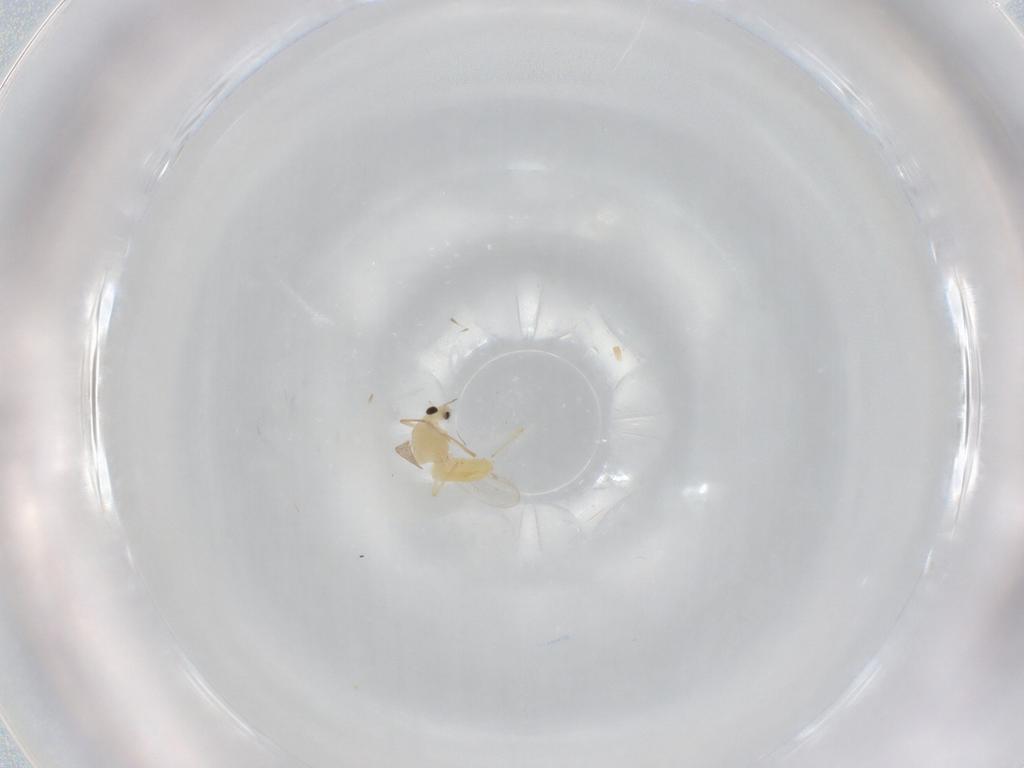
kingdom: Animalia
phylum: Arthropoda
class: Insecta
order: Diptera
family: Chironomidae
